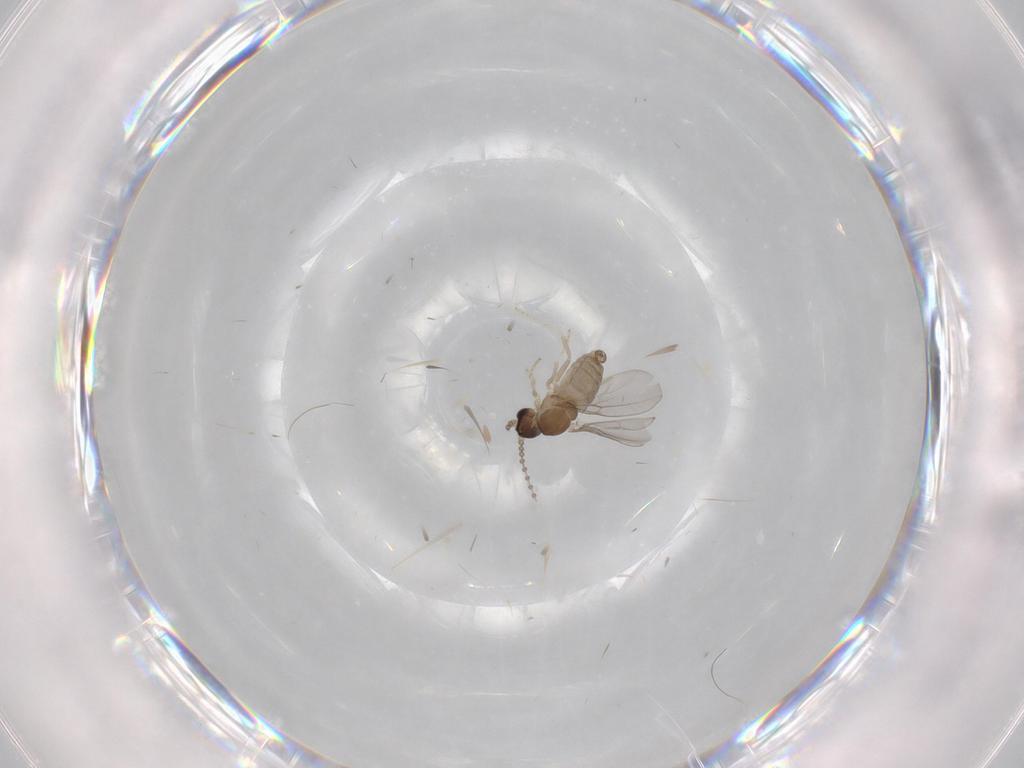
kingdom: Animalia
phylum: Arthropoda
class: Insecta
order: Diptera
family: Cecidomyiidae
